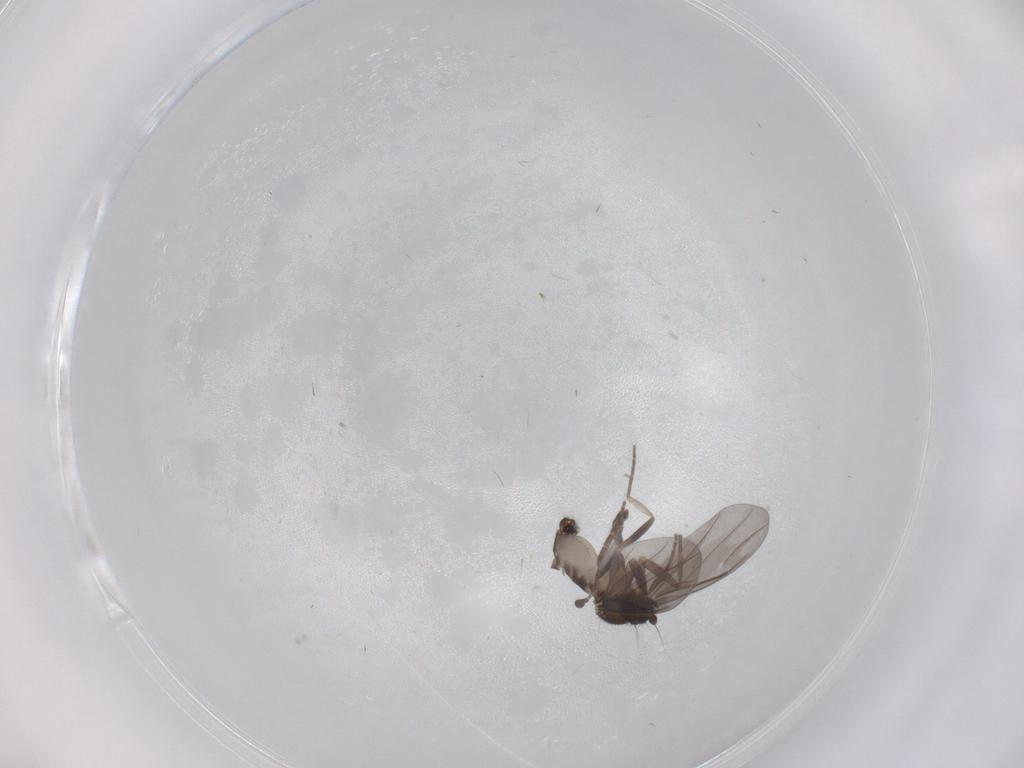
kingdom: Animalia
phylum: Arthropoda
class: Insecta
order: Diptera
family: Phoridae
